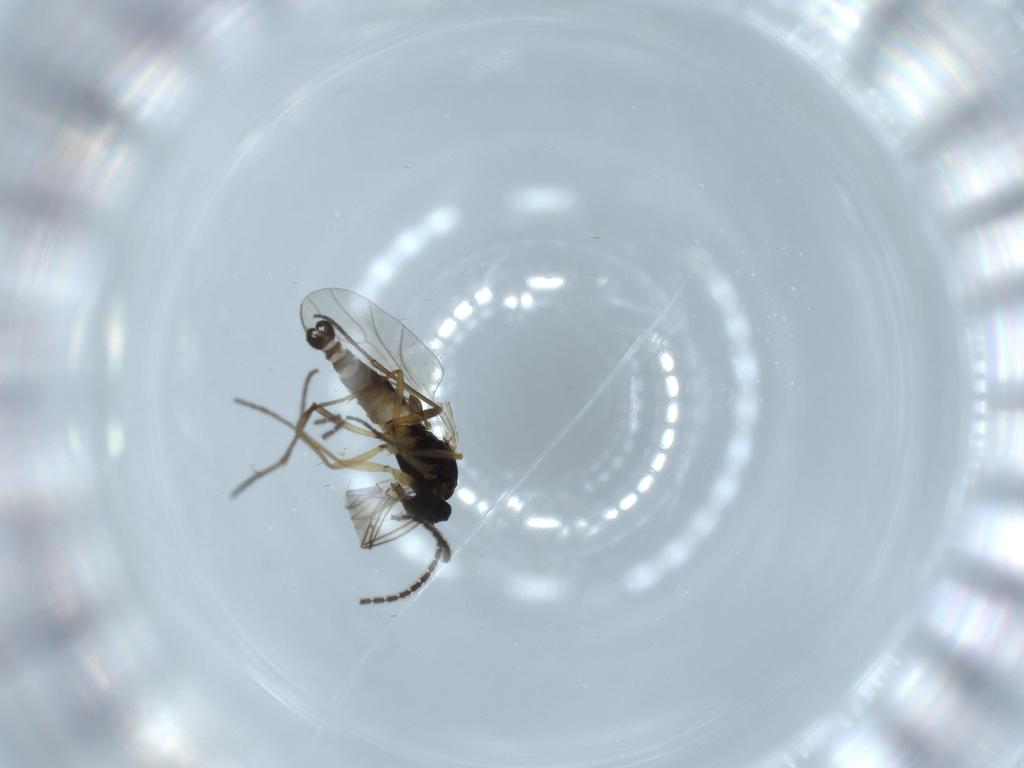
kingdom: Animalia
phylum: Arthropoda
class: Insecta
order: Diptera
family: Sciaridae
